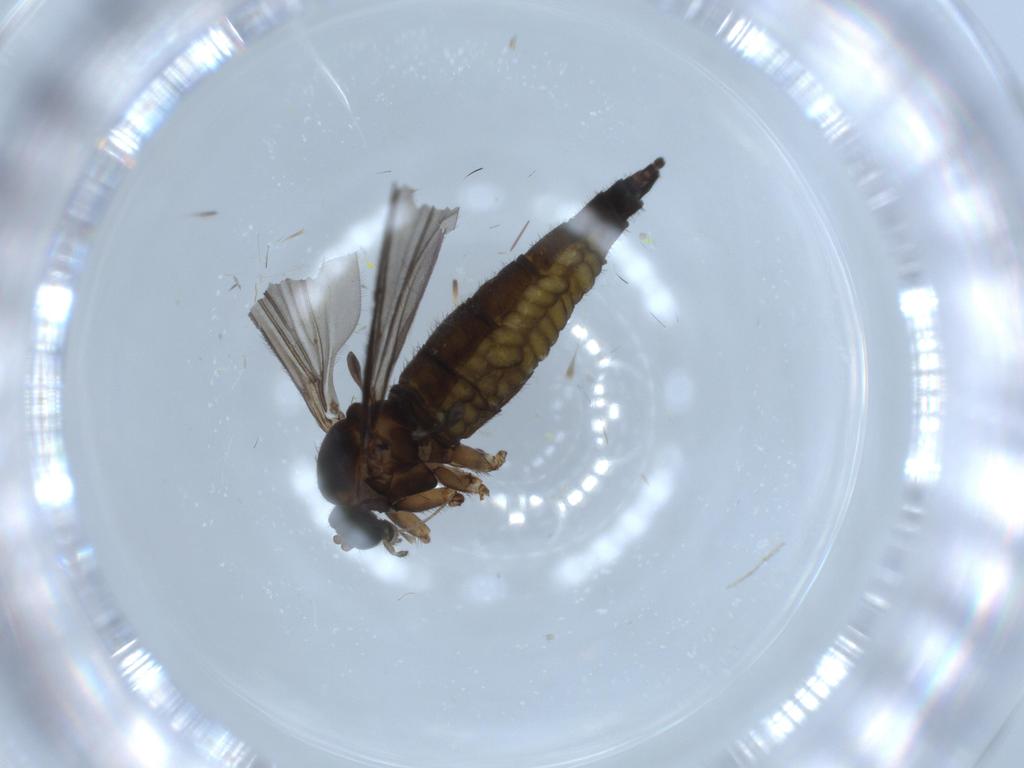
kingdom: Animalia
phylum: Arthropoda
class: Insecta
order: Diptera
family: Sciaridae
